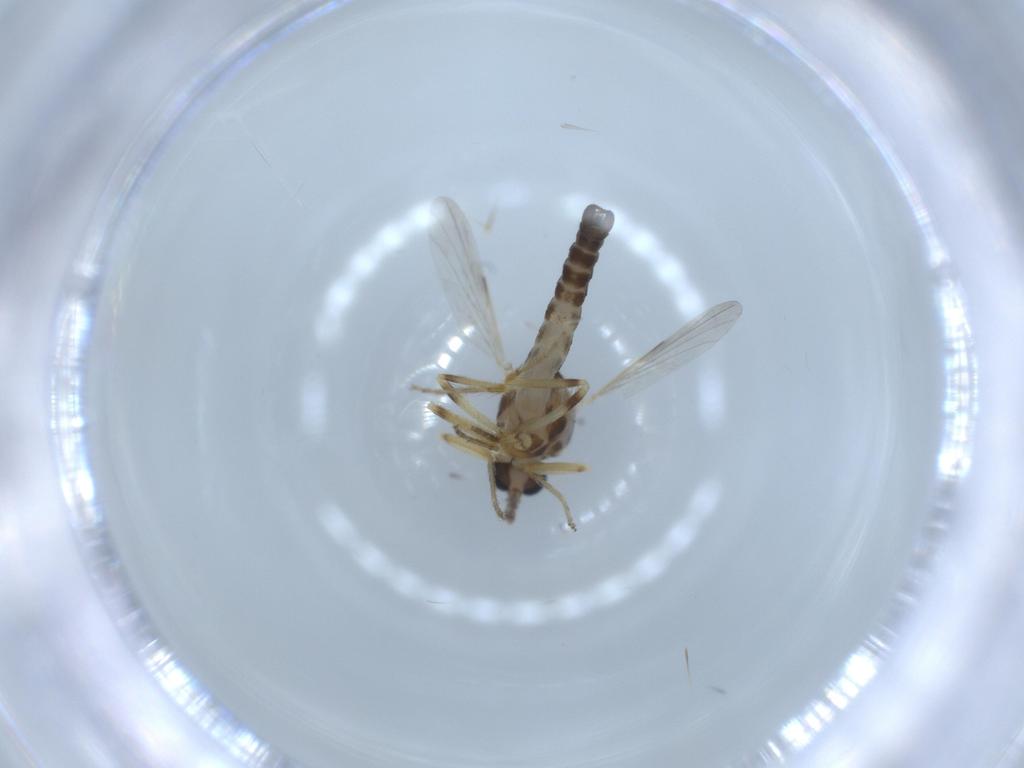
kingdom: Animalia
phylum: Arthropoda
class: Insecta
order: Diptera
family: Ceratopogonidae
